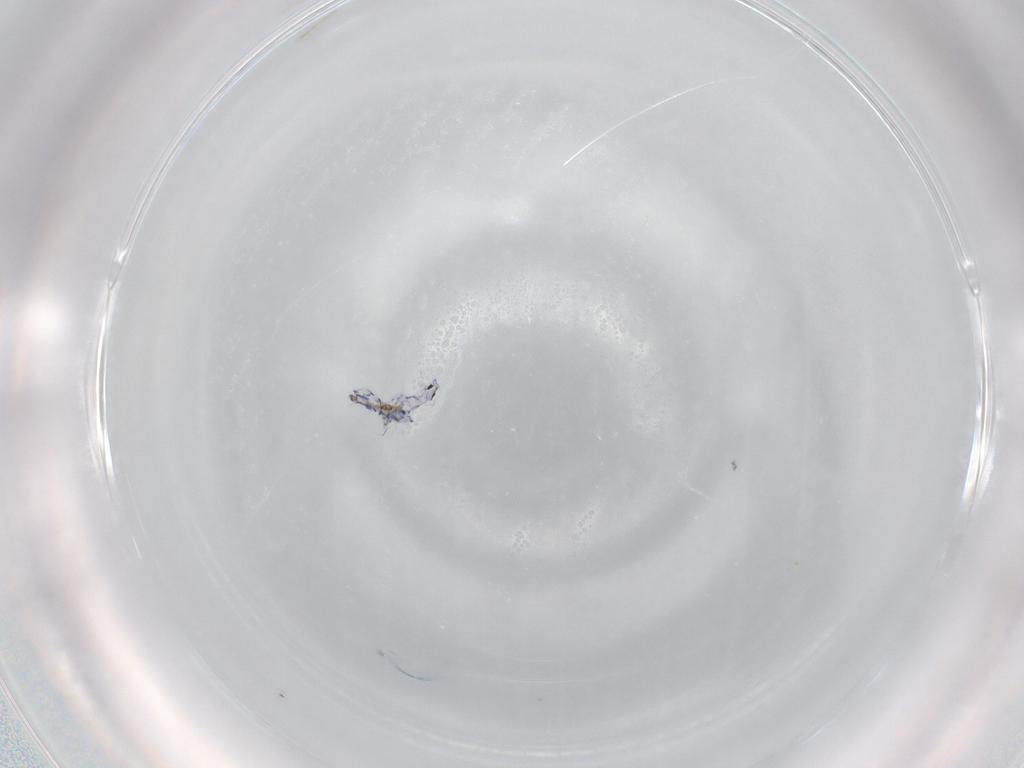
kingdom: Animalia
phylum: Arthropoda
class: Collembola
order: Entomobryomorpha
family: Entomobryidae
